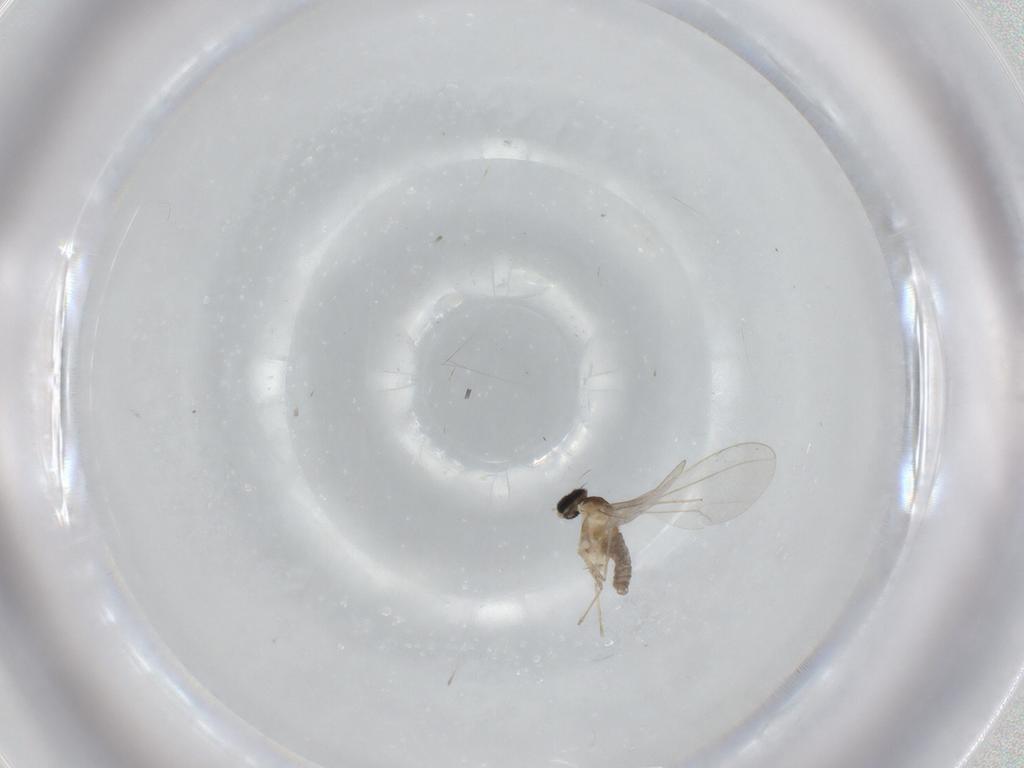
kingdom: Animalia
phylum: Arthropoda
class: Insecta
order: Diptera
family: Cecidomyiidae
